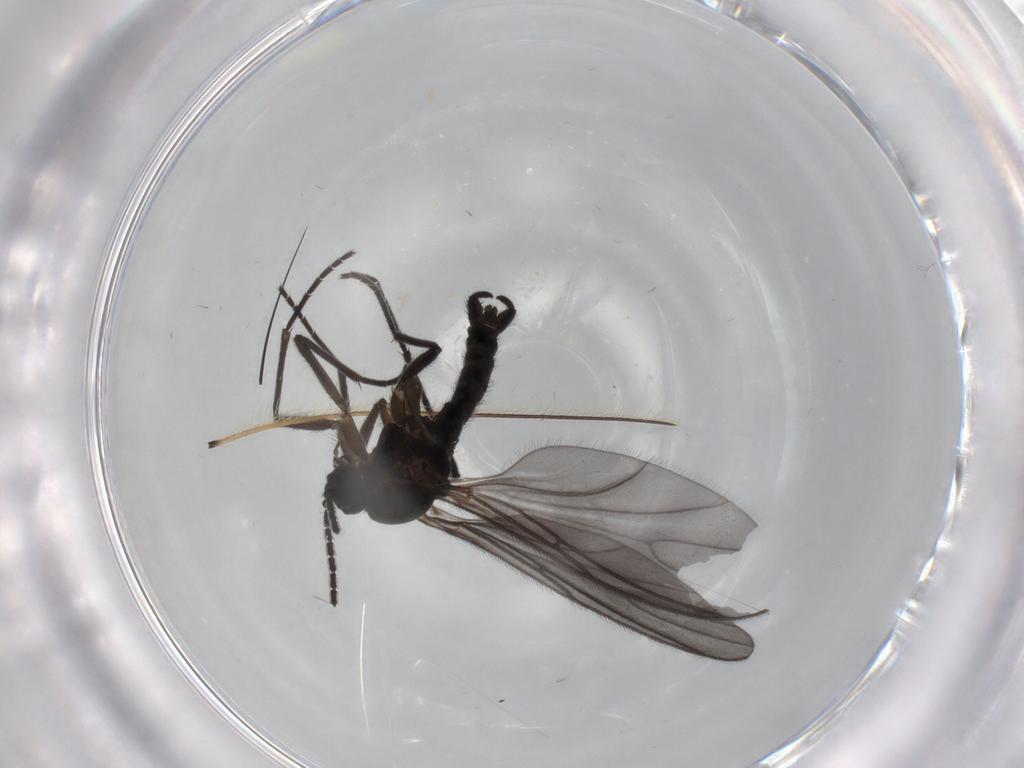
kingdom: Animalia
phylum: Arthropoda
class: Insecta
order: Diptera
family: Sciaridae
